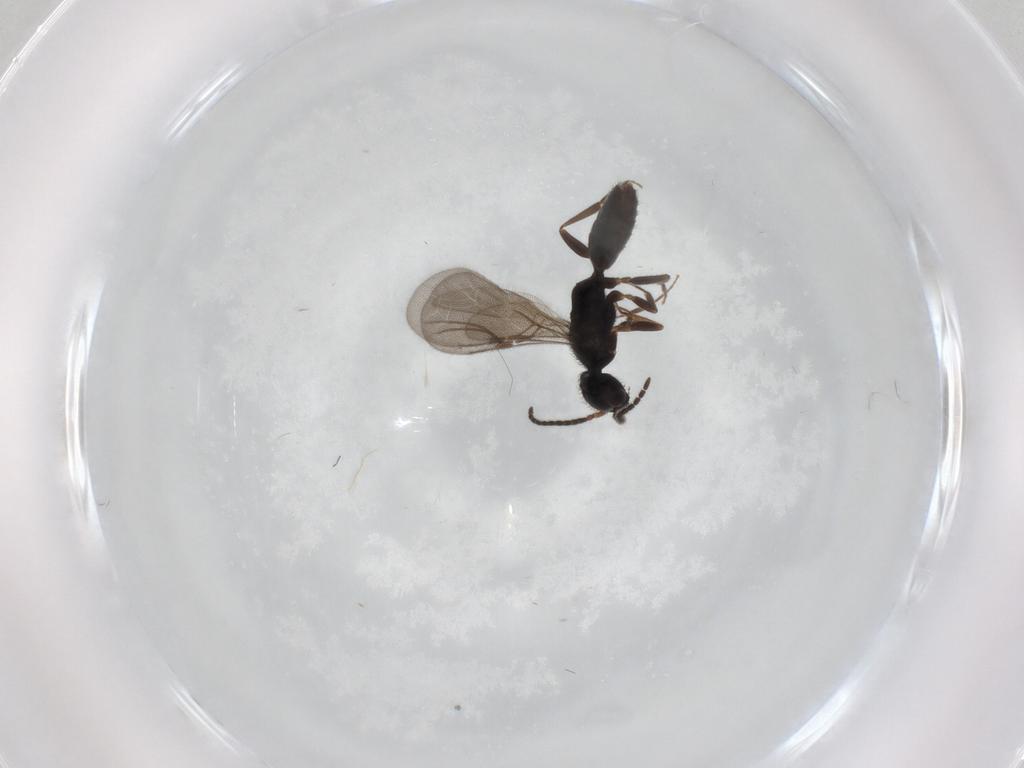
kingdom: Animalia
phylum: Arthropoda
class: Insecta
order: Hymenoptera
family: Bethylidae
